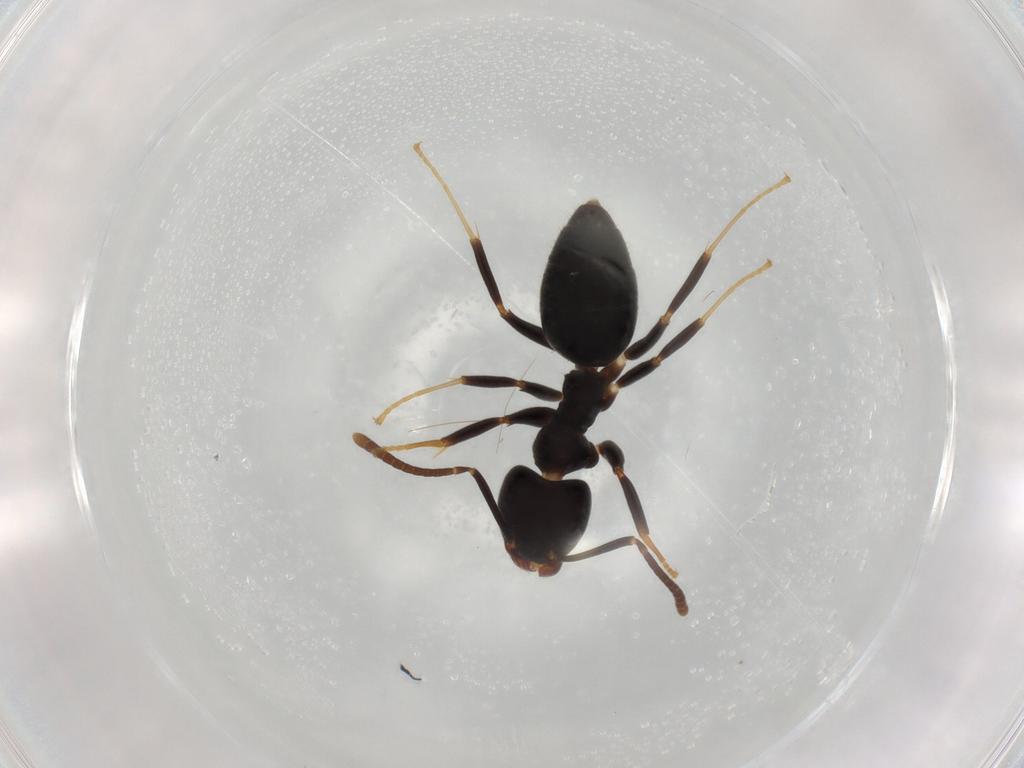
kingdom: Animalia
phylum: Arthropoda
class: Insecta
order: Hymenoptera
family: Formicidae
